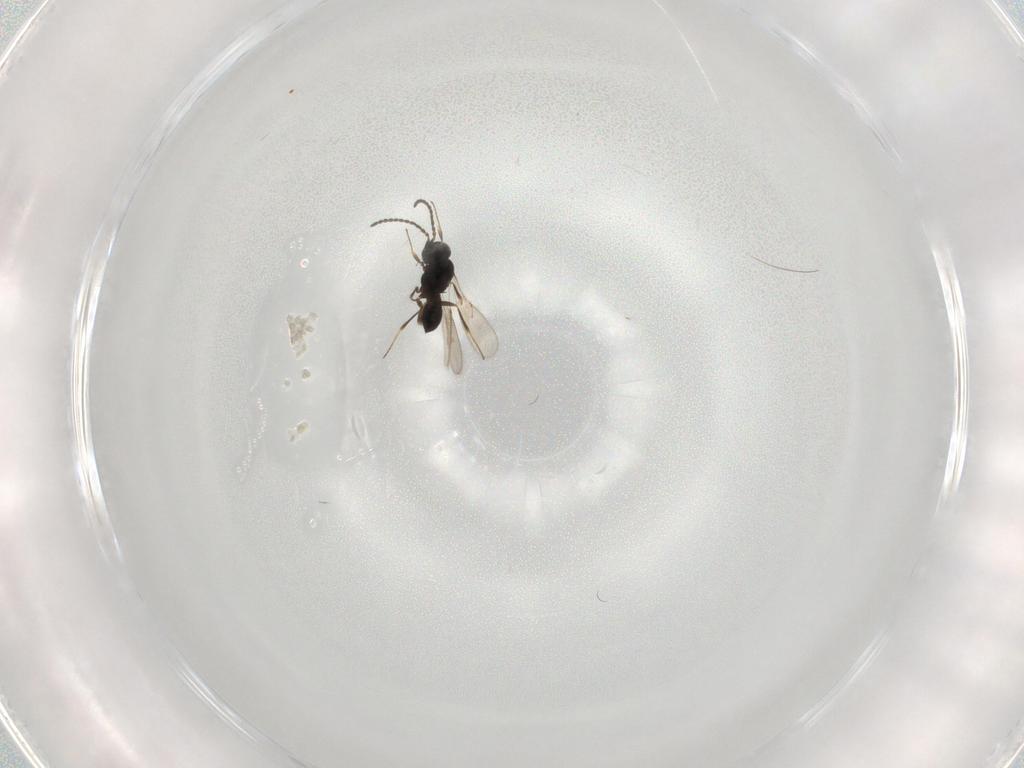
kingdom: Animalia
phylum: Arthropoda
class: Insecta
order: Hymenoptera
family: Scelionidae
